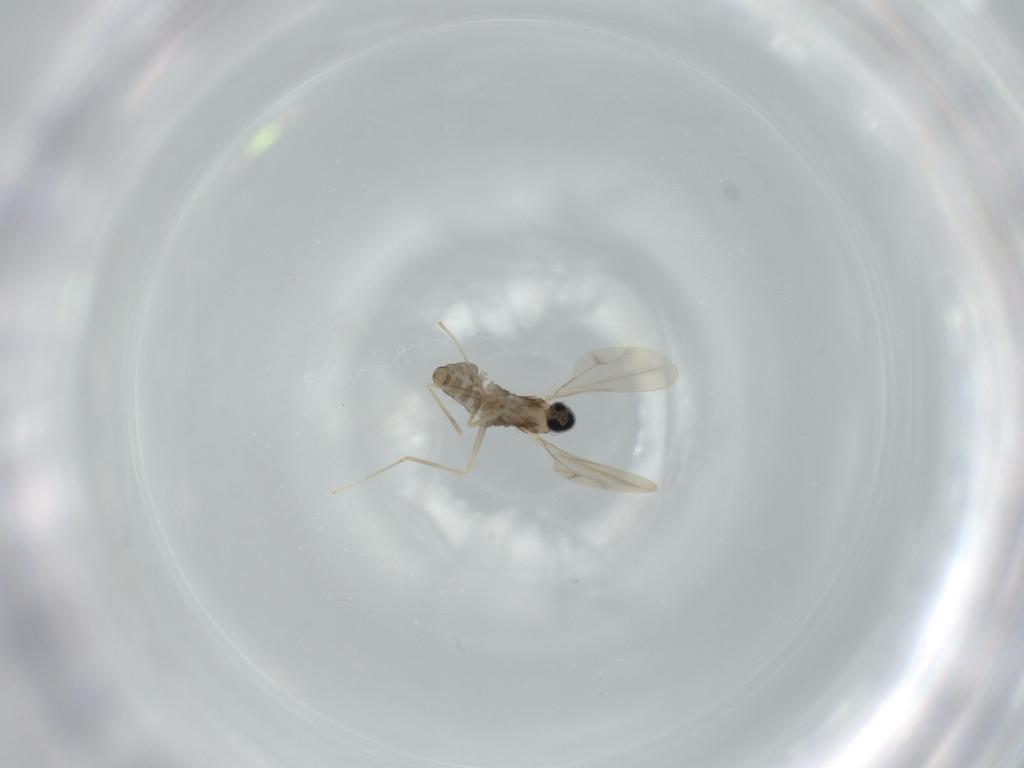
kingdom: Animalia
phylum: Arthropoda
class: Insecta
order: Diptera
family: Cecidomyiidae
